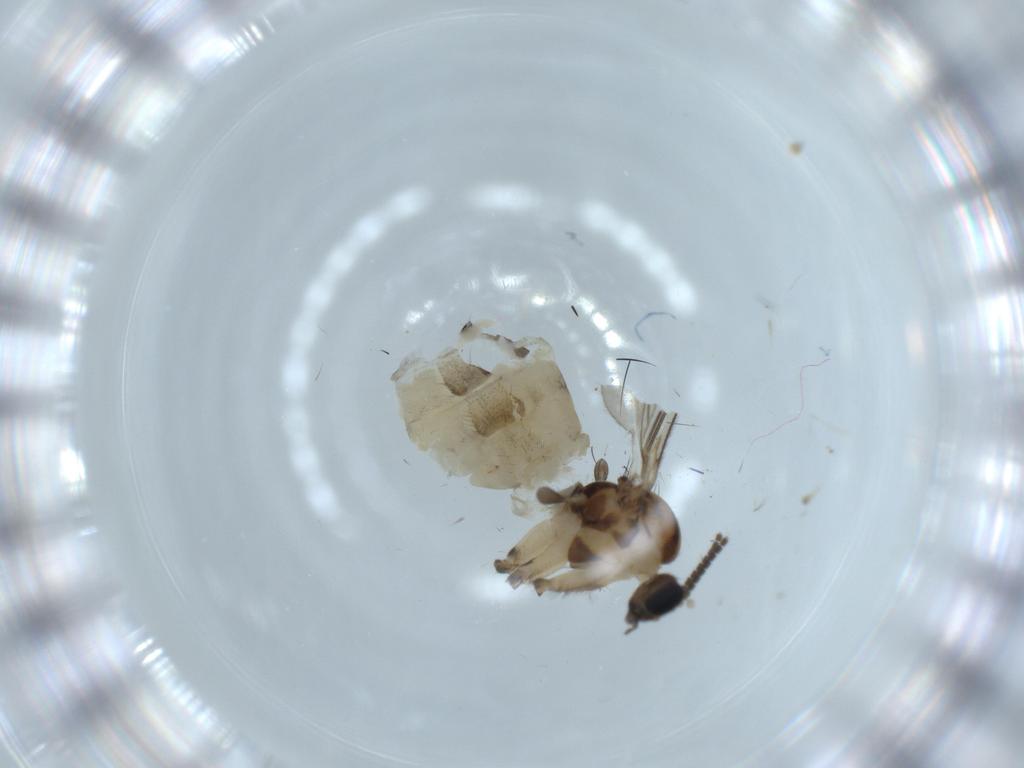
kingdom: Animalia
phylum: Arthropoda
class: Insecta
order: Diptera
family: Sciaridae
